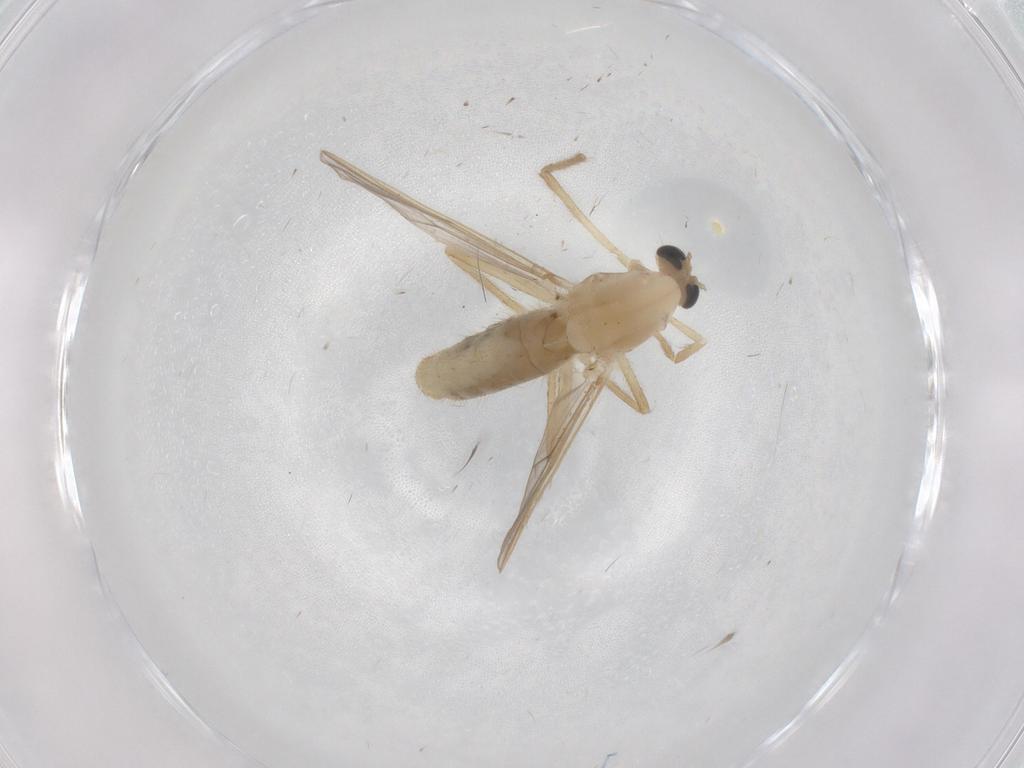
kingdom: Animalia
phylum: Arthropoda
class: Insecta
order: Diptera
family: Chironomidae
